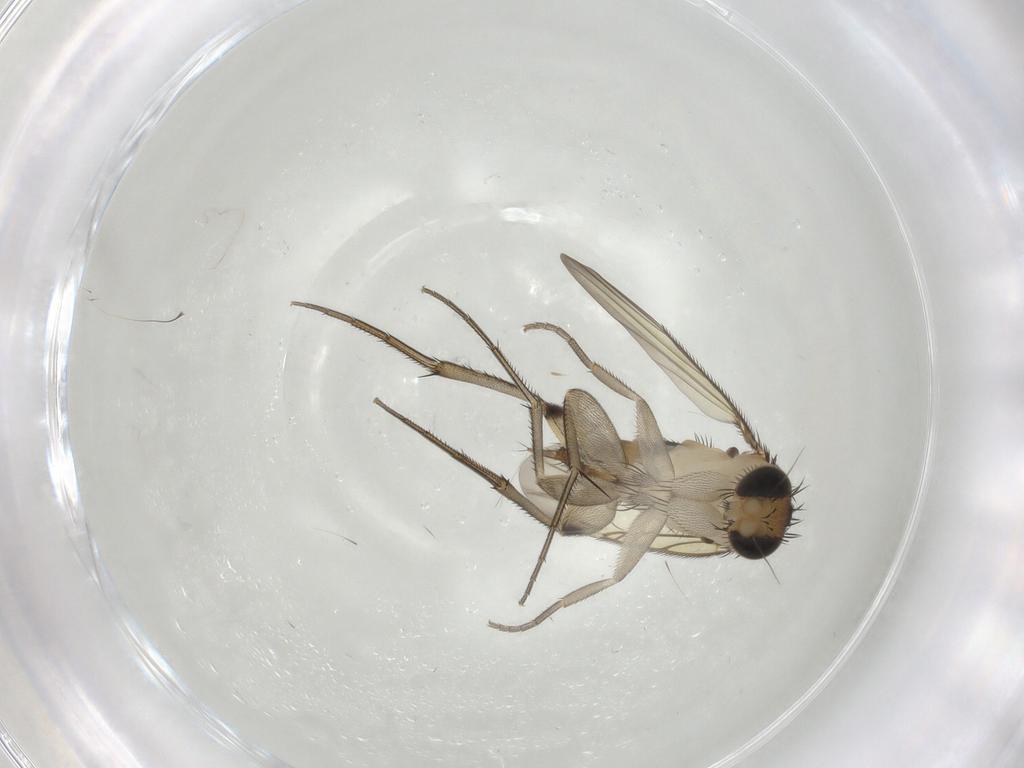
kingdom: Animalia
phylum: Arthropoda
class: Insecta
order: Diptera
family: Phoridae
